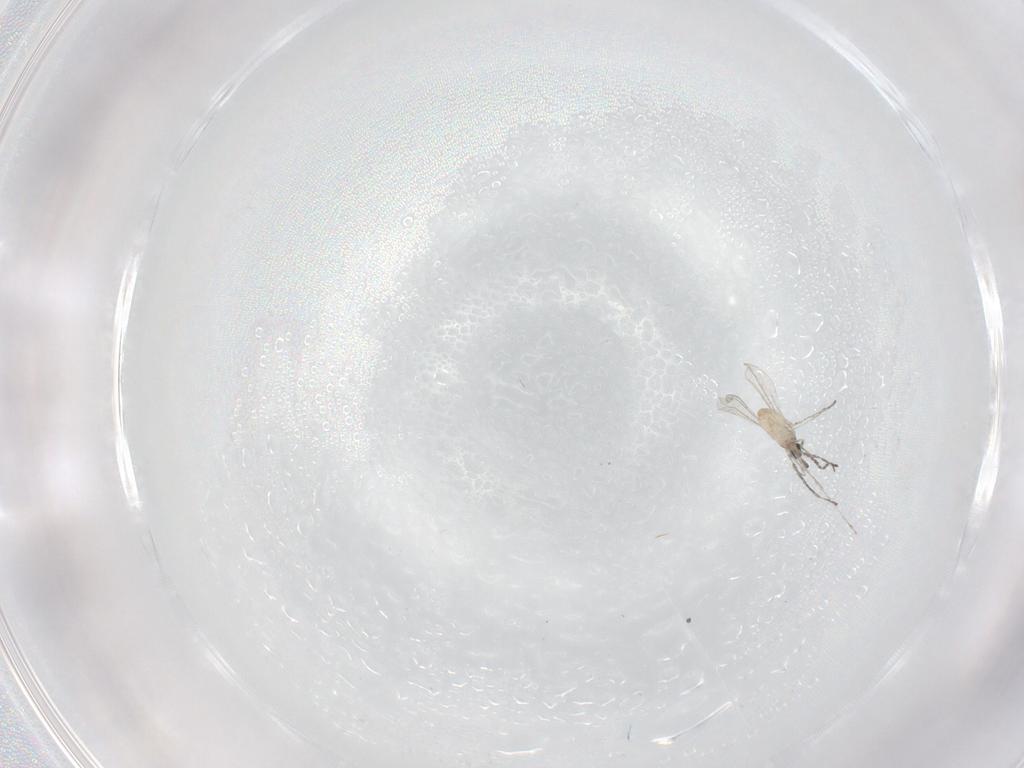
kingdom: Animalia
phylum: Arthropoda
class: Insecta
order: Diptera
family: Cecidomyiidae
